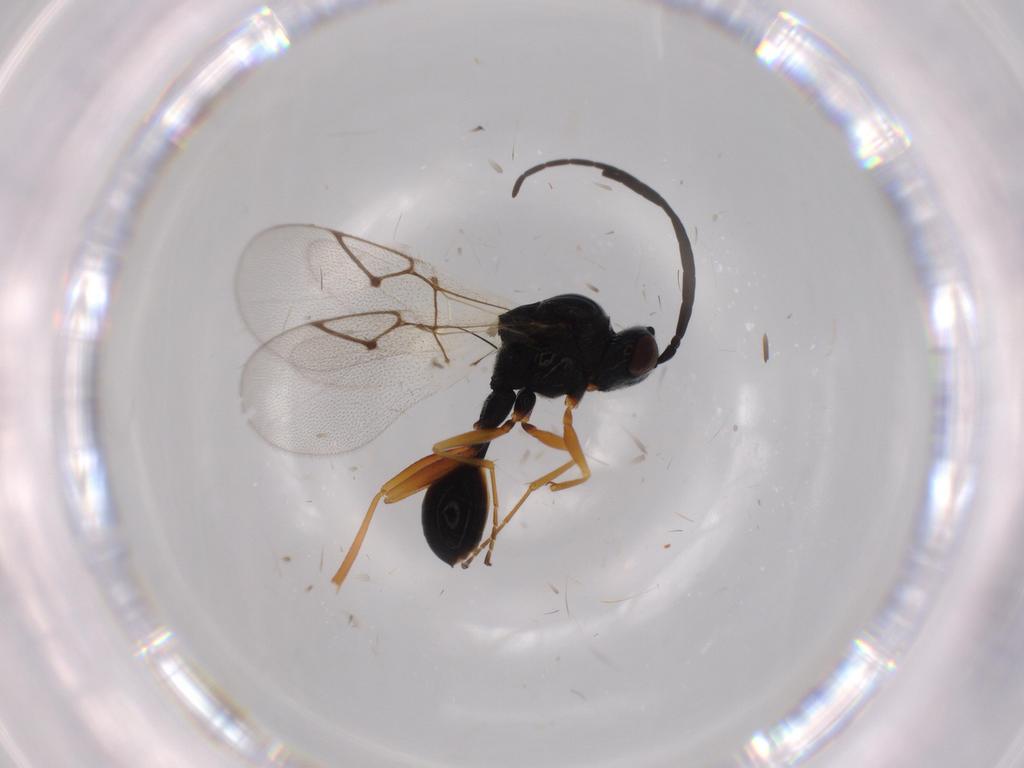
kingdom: Animalia
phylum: Arthropoda
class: Insecta
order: Hymenoptera
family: Figitidae
